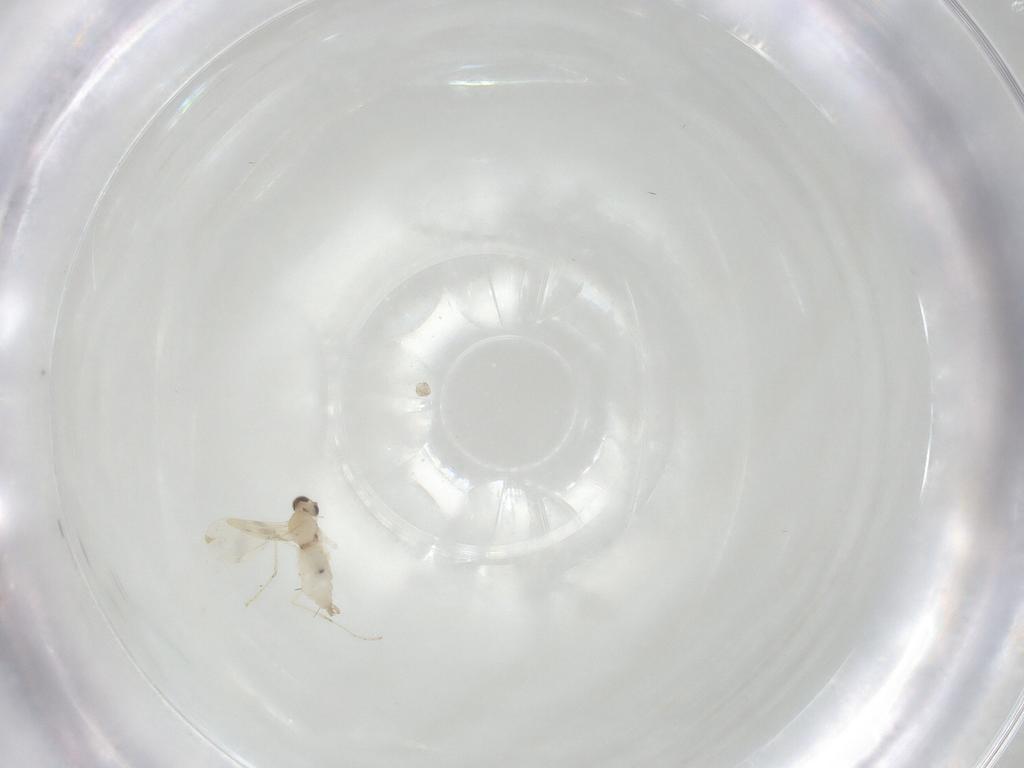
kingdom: Animalia
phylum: Arthropoda
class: Insecta
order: Diptera
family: Cecidomyiidae
